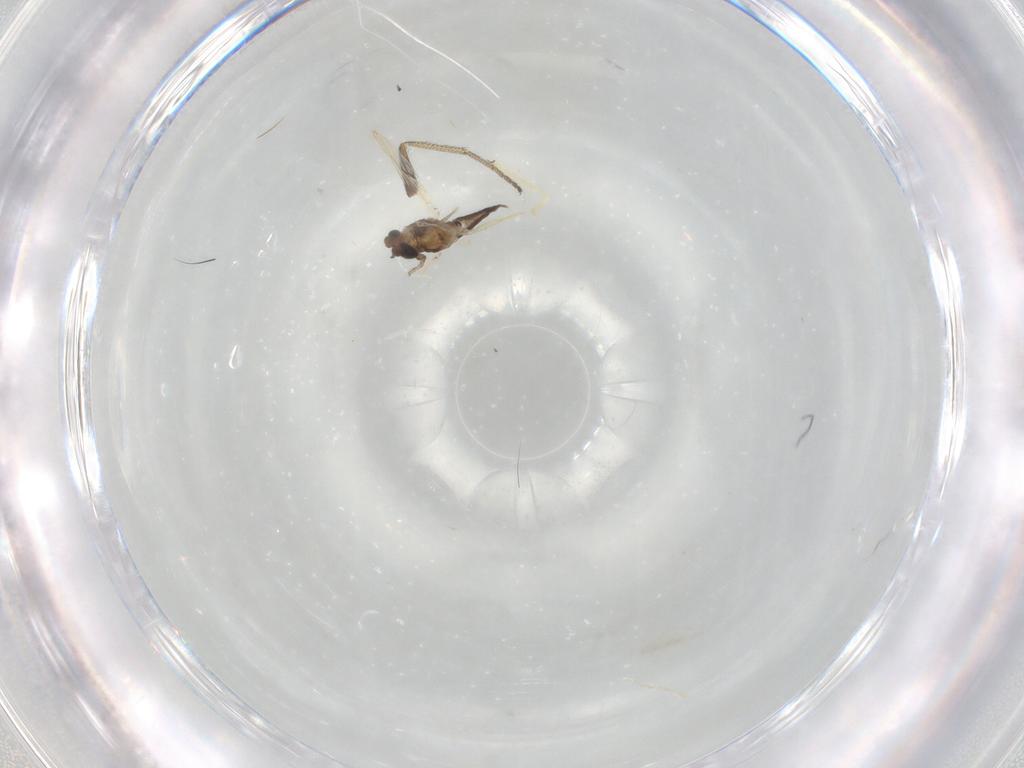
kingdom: Animalia
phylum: Arthropoda
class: Insecta
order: Diptera
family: Chironomidae
